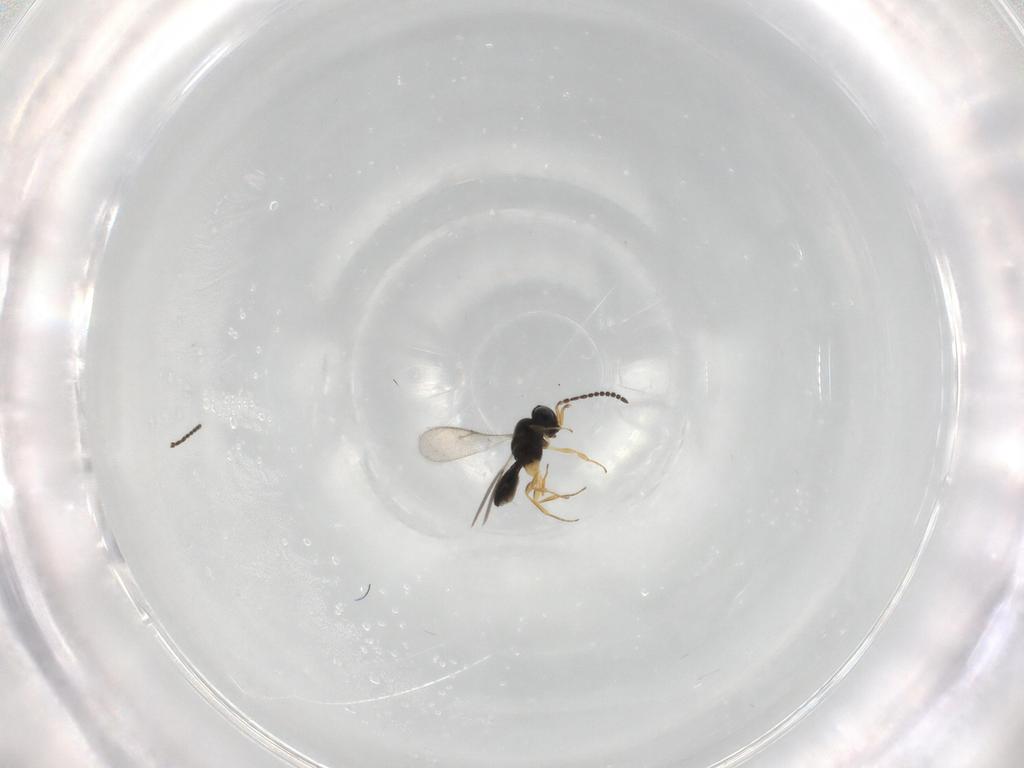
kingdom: Animalia
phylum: Arthropoda
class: Insecta
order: Hymenoptera
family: Scelionidae
